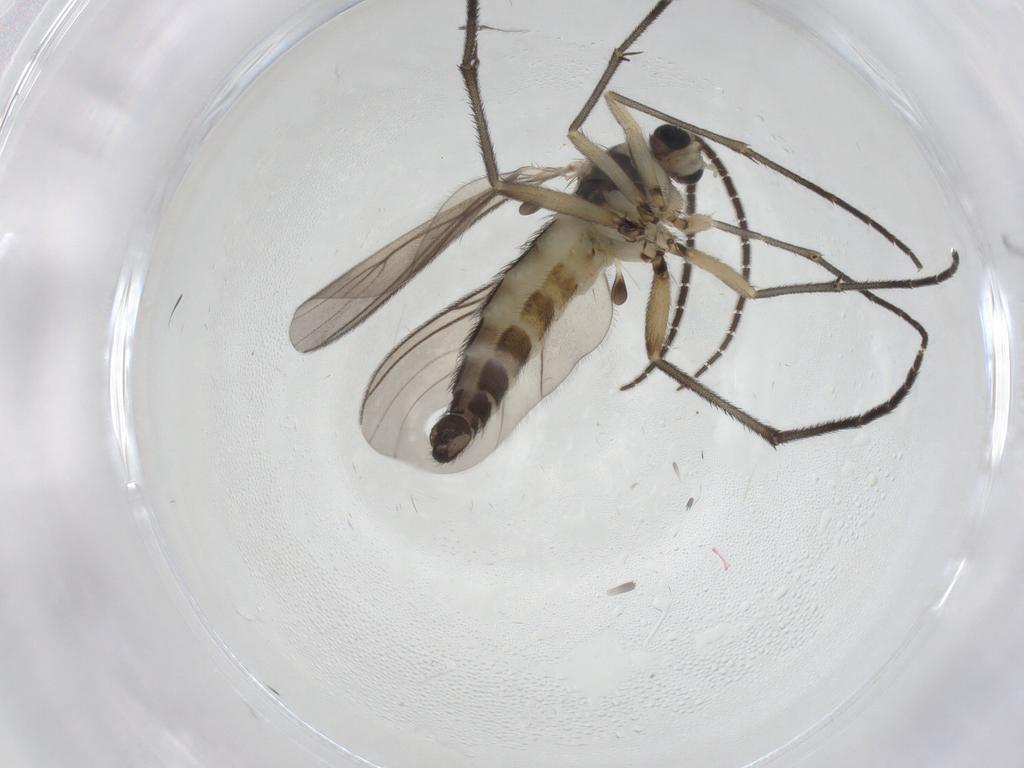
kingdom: Animalia
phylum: Arthropoda
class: Insecta
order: Diptera
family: Sciaridae
